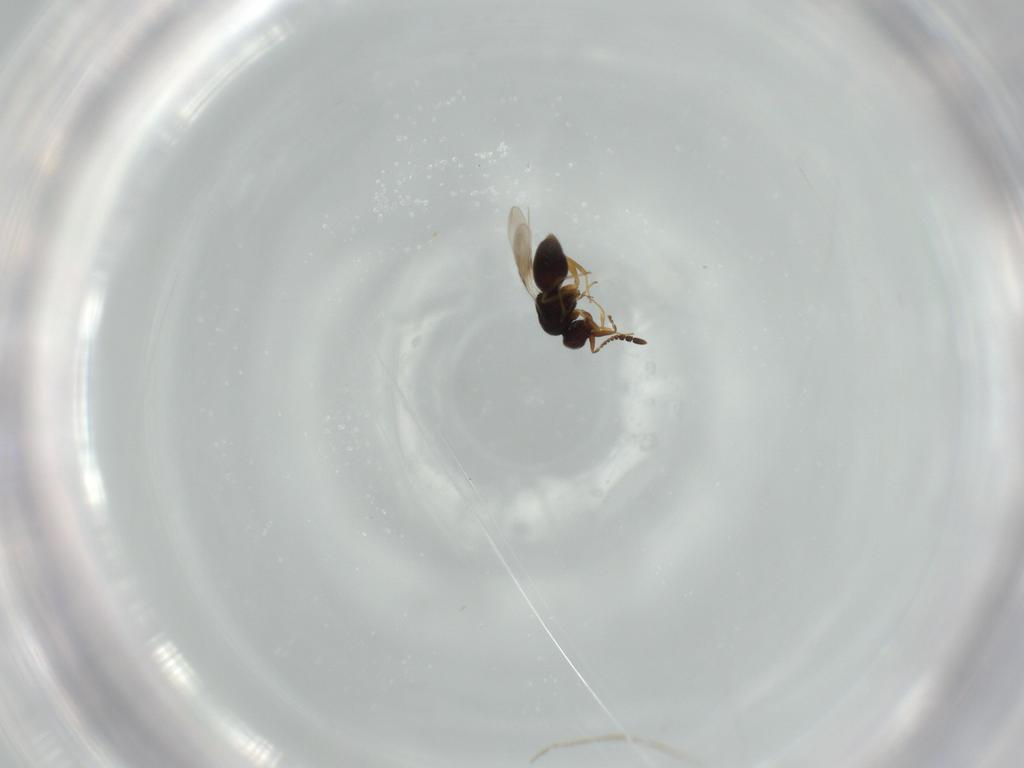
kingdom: Animalia
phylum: Arthropoda
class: Insecta
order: Hymenoptera
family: Ceraphronidae
